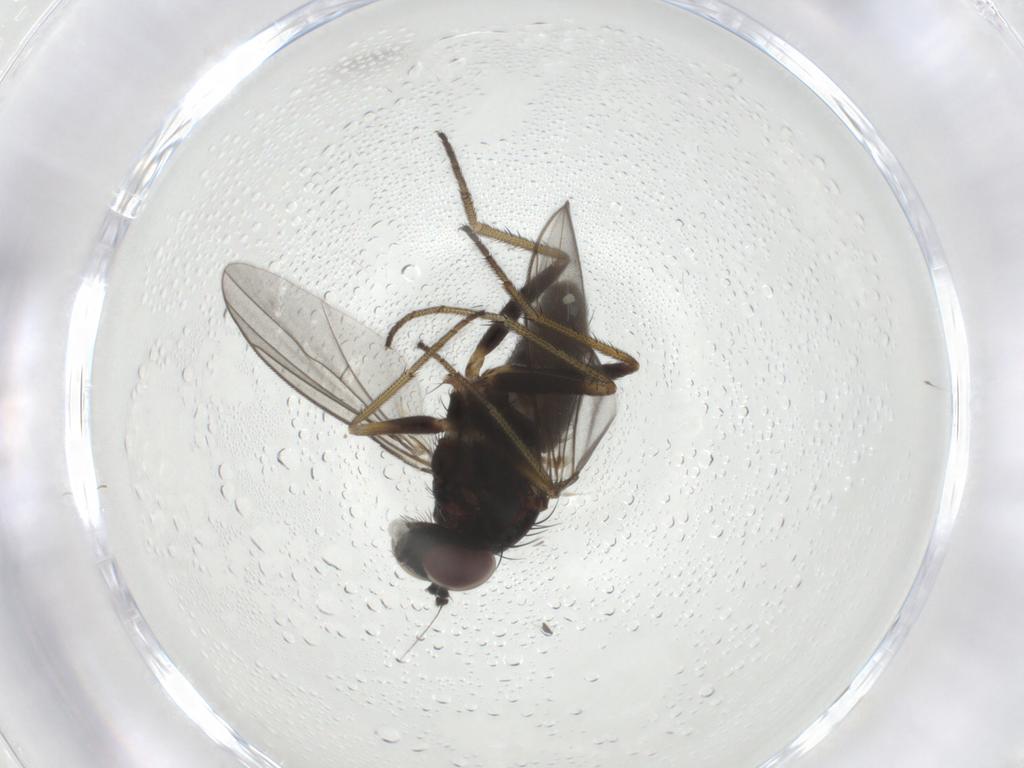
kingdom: Animalia
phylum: Arthropoda
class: Insecta
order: Diptera
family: Dolichopodidae
